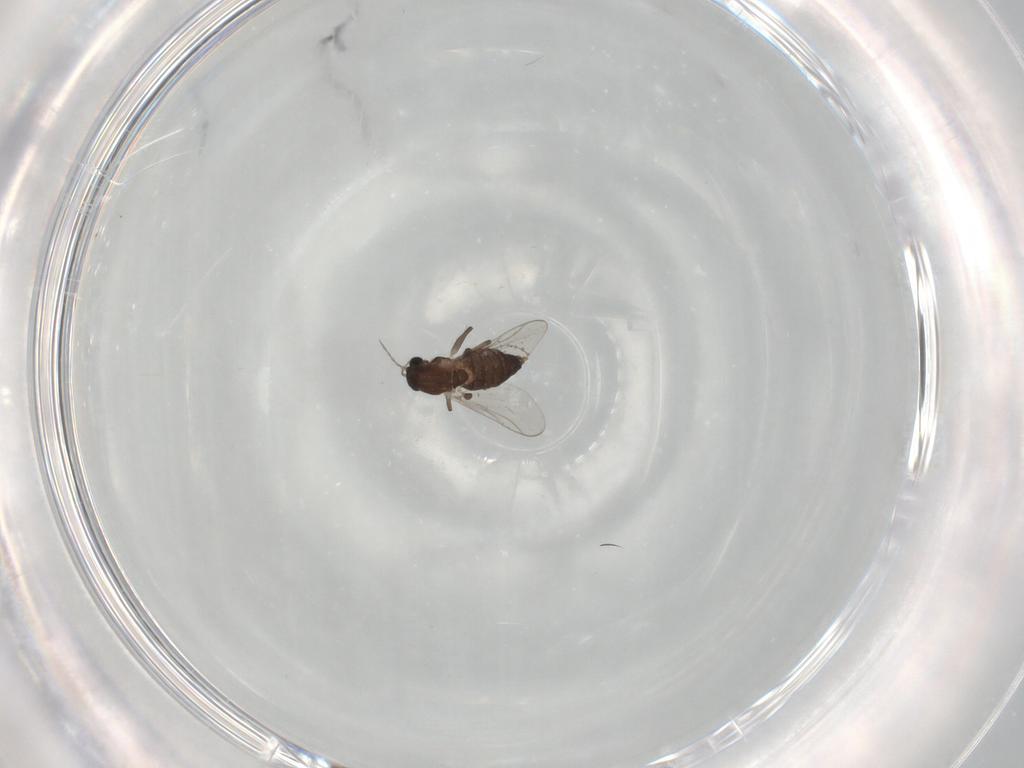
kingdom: Animalia
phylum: Arthropoda
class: Insecta
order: Diptera
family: Chironomidae
